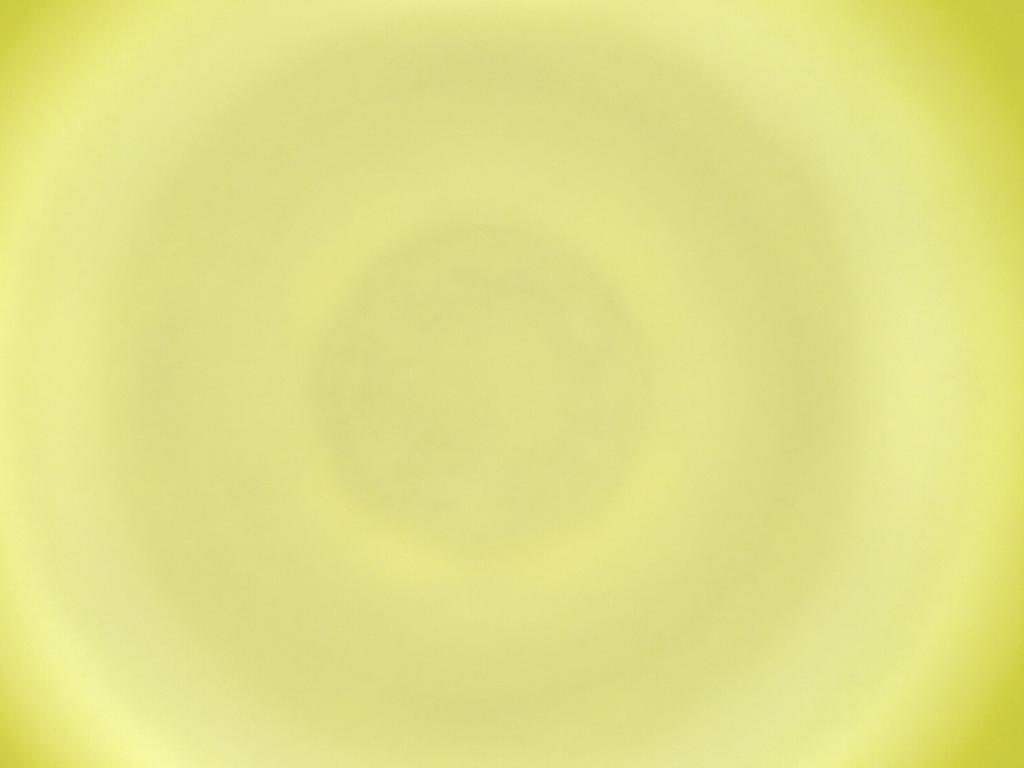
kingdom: Animalia
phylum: Arthropoda
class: Insecta
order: Diptera
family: Cecidomyiidae
